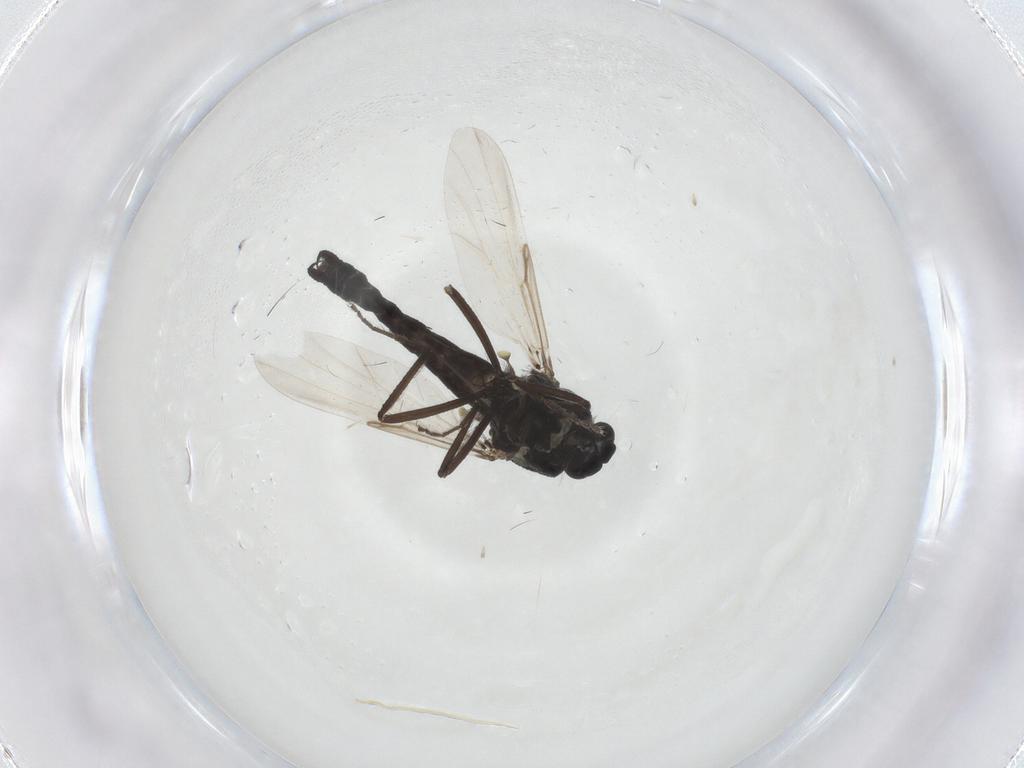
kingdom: Animalia
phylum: Arthropoda
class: Insecta
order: Diptera
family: Ceratopogonidae
